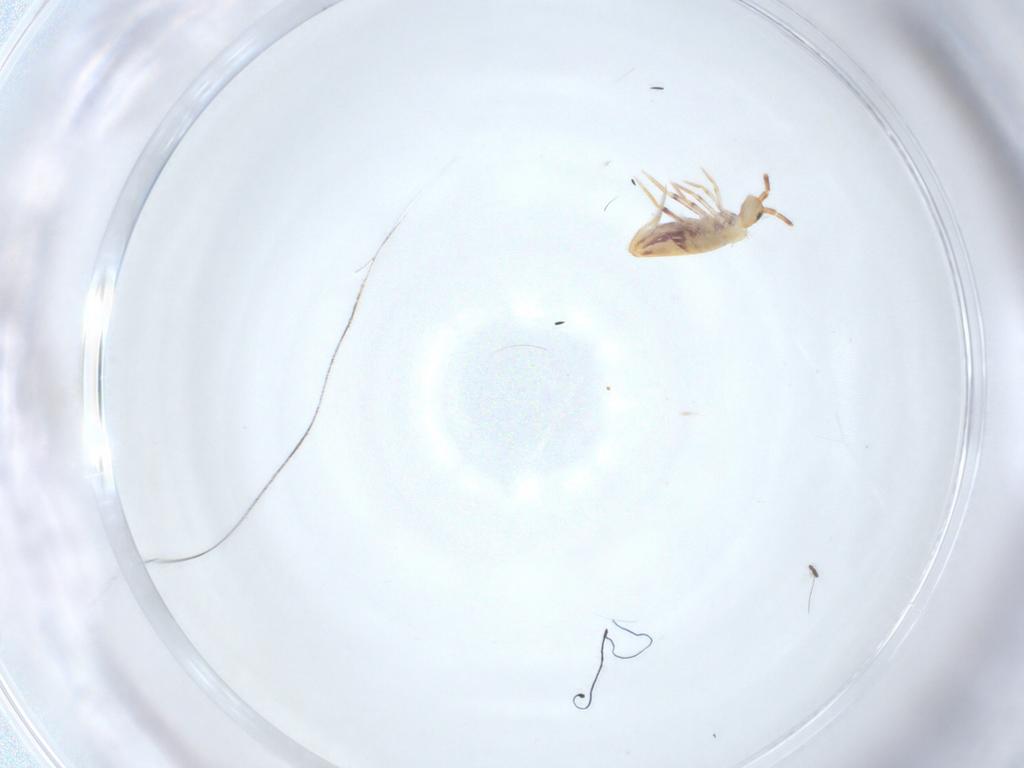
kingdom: Animalia
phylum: Arthropoda
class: Collembola
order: Poduromorpha
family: Hypogastruridae
